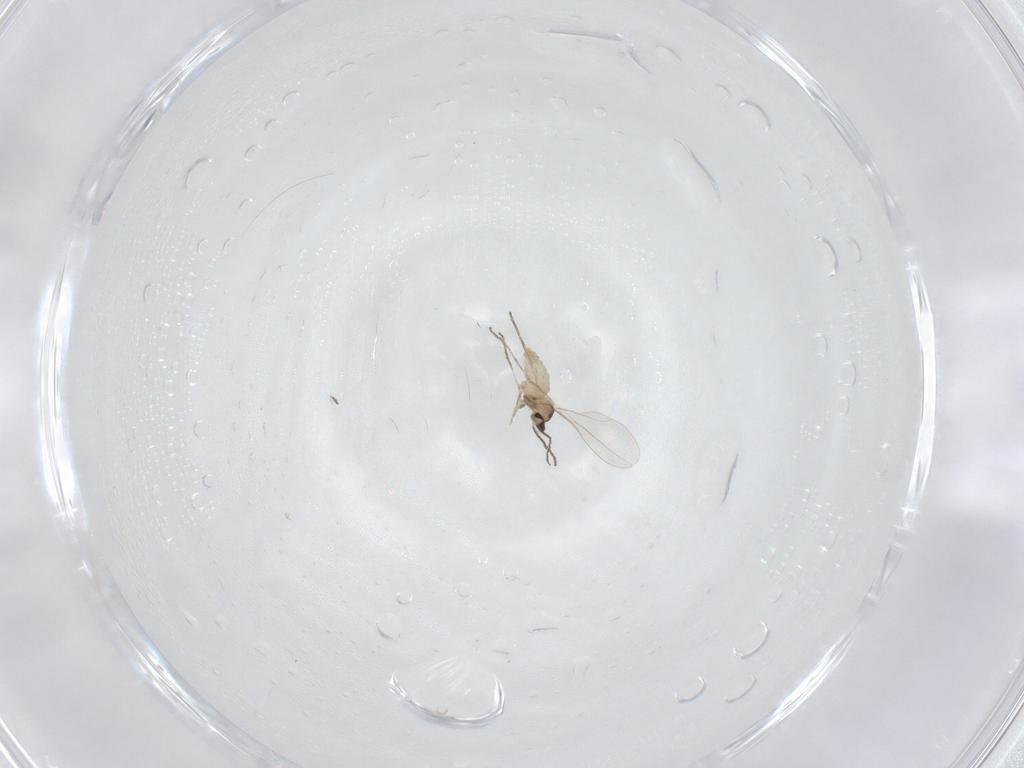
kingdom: Animalia
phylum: Arthropoda
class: Insecta
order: Diptera
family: Cecidomyiidae
